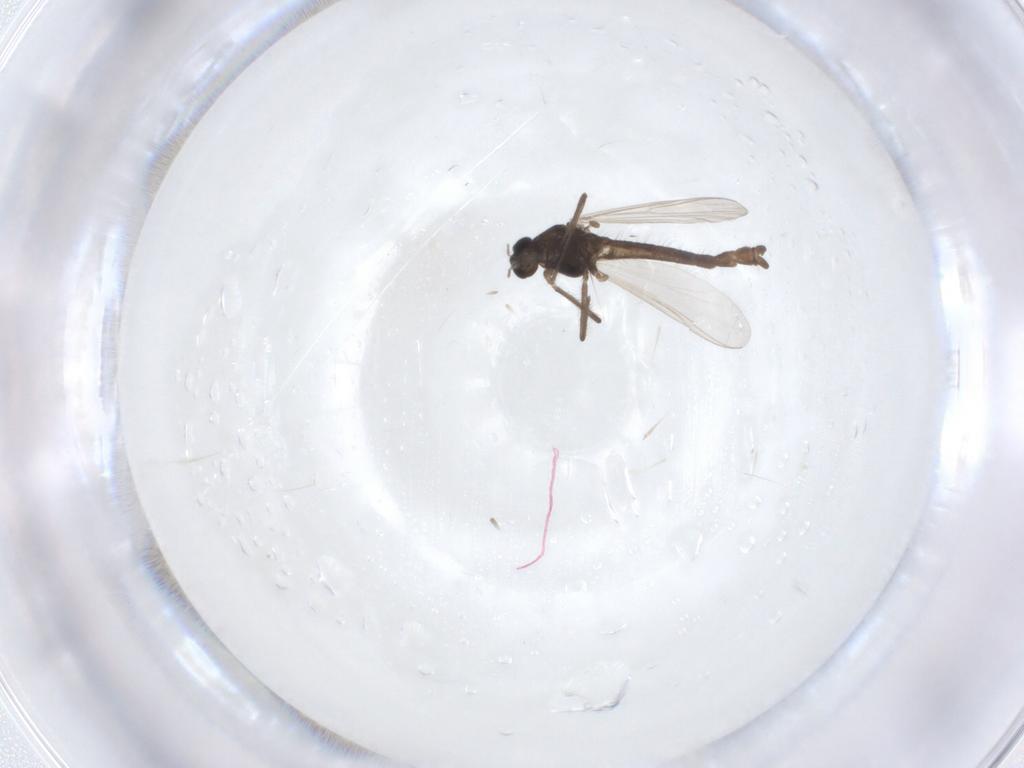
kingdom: Animalia
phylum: Arthropoda
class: Insecta
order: Diptera
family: Chironomidae
